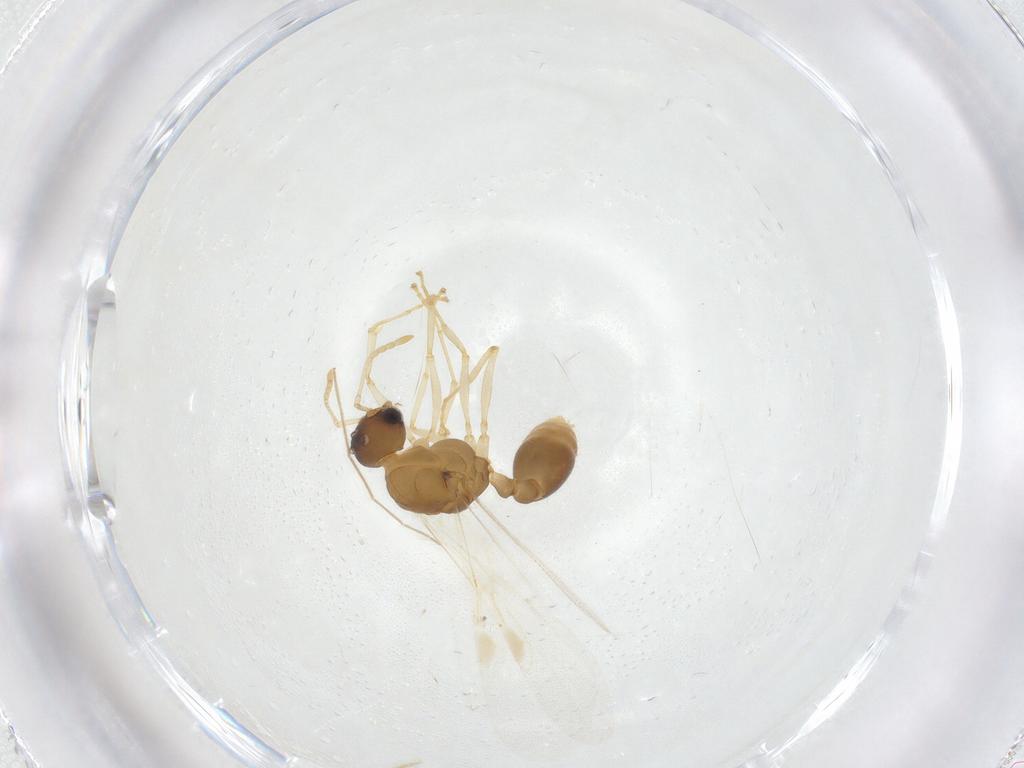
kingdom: Animalia
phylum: Arthropoda
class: Insecta
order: Hymenoptera
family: Formicidae
